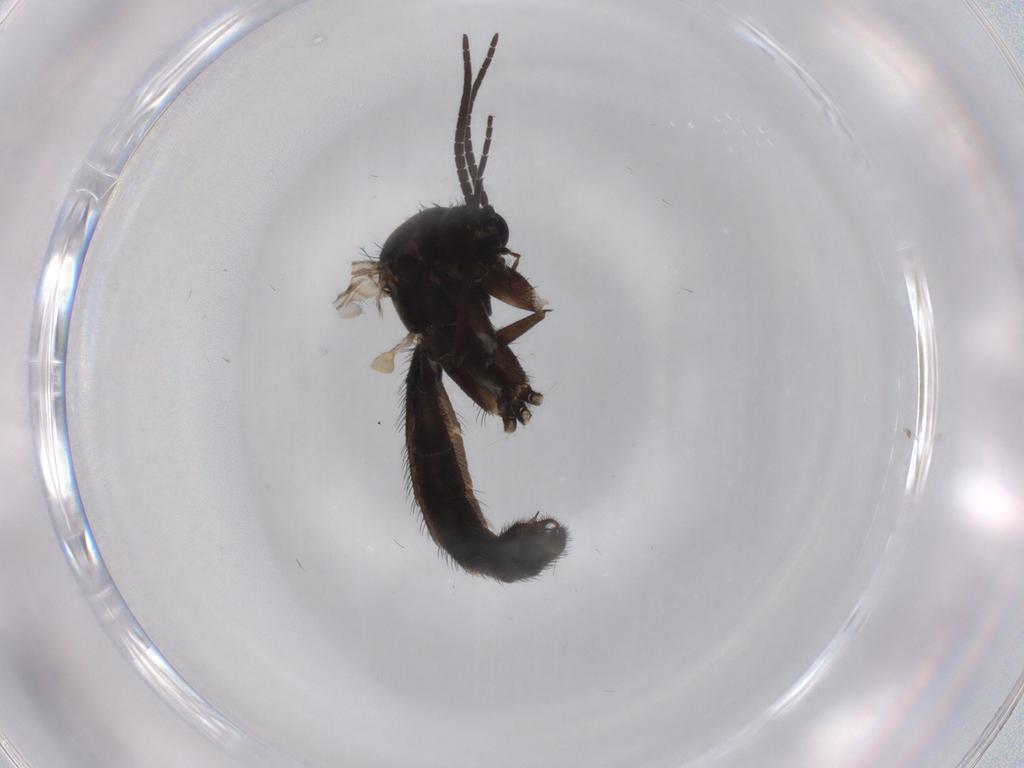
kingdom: Animalia
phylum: Arthropoda
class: Insecta
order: Diptera
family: Keroplatidae
